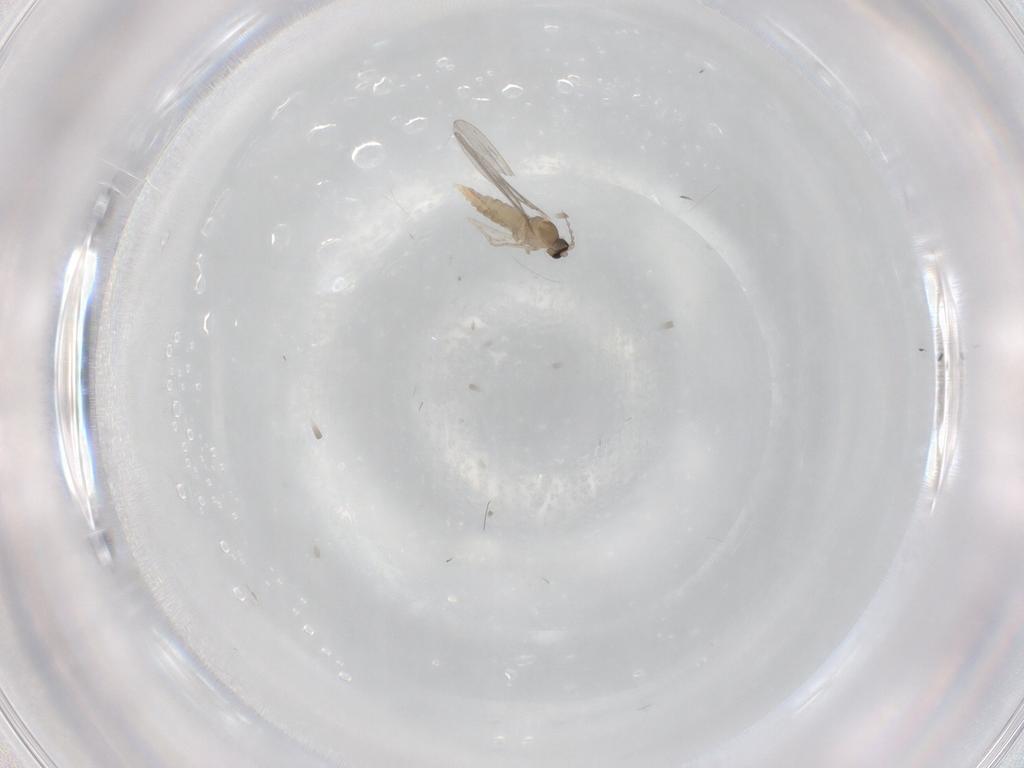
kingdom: Animalia
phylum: Arthropoda
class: Insecta
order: Diptera
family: Cecidomyiidae
